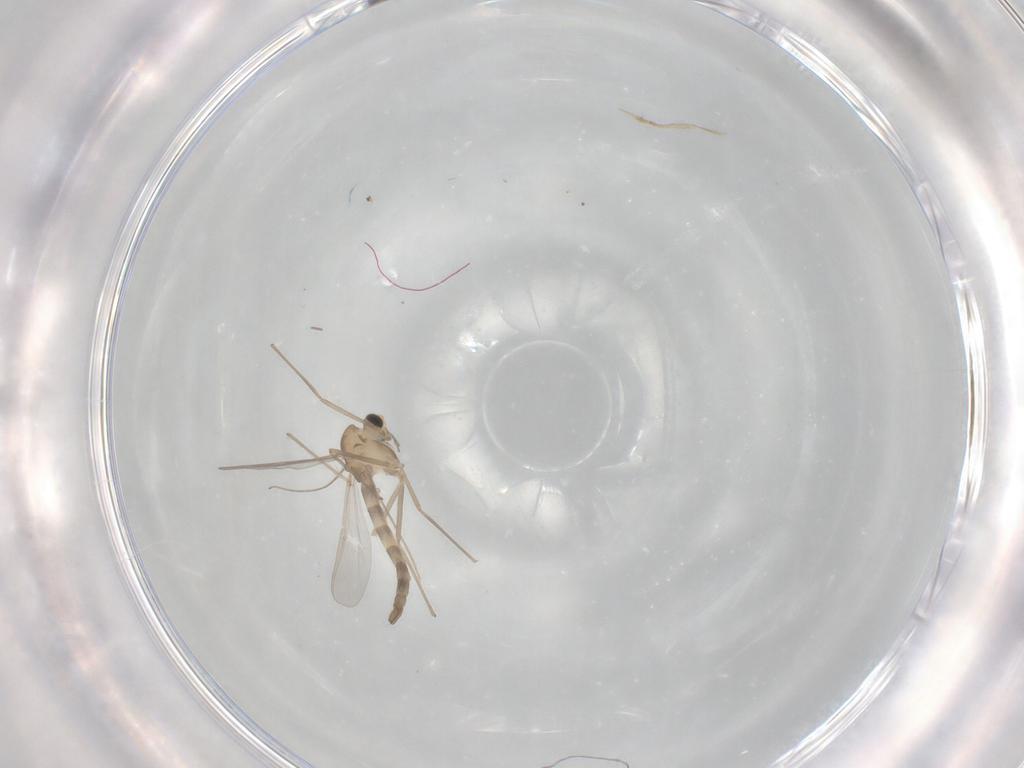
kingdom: Animalia
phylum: Arthropoda
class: Insecta
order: Diptera
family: Chironomidae
